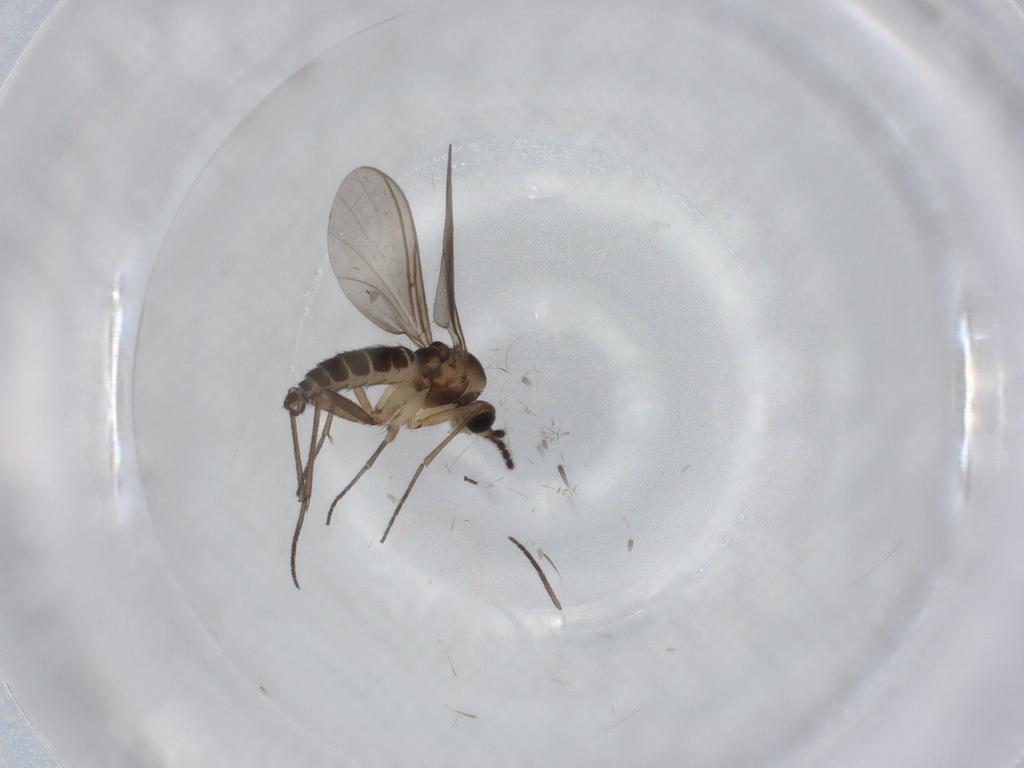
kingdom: Animalia
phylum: Arthropoda
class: Insecta
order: Diptera
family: Sciaridae
